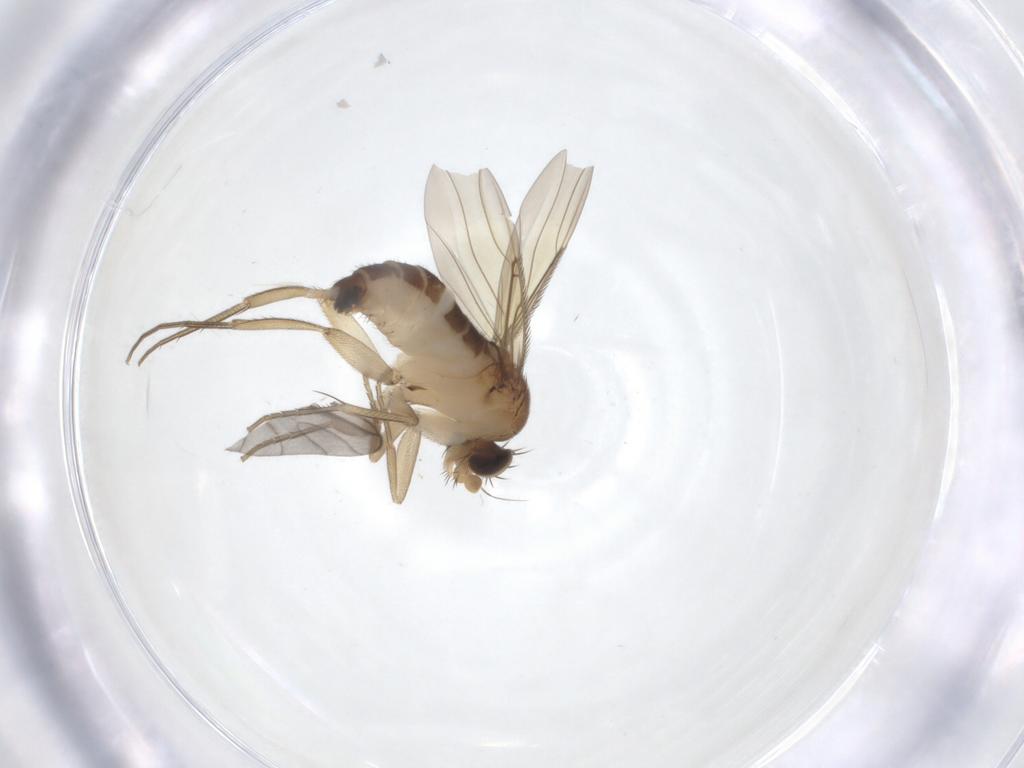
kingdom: Animalia
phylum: Arthropoda
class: Insecta
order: Diptera
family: Phoridae
